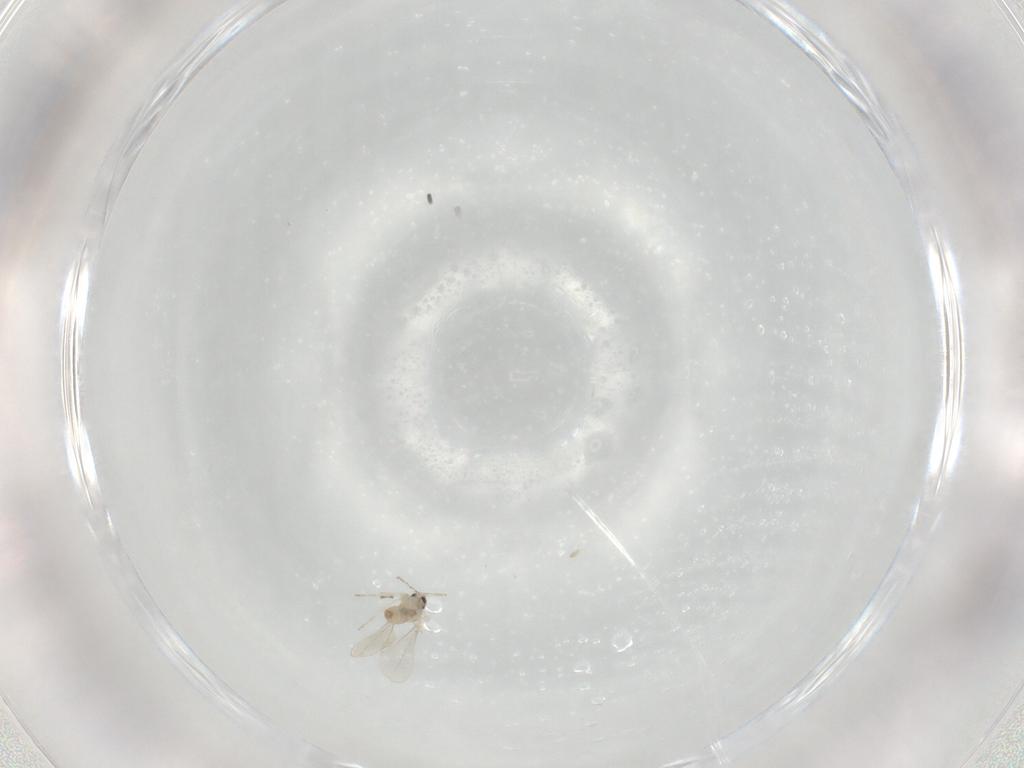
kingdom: Animalia
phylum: Arthropoda
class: Insecta
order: Diptera
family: Cecidomyiidae
